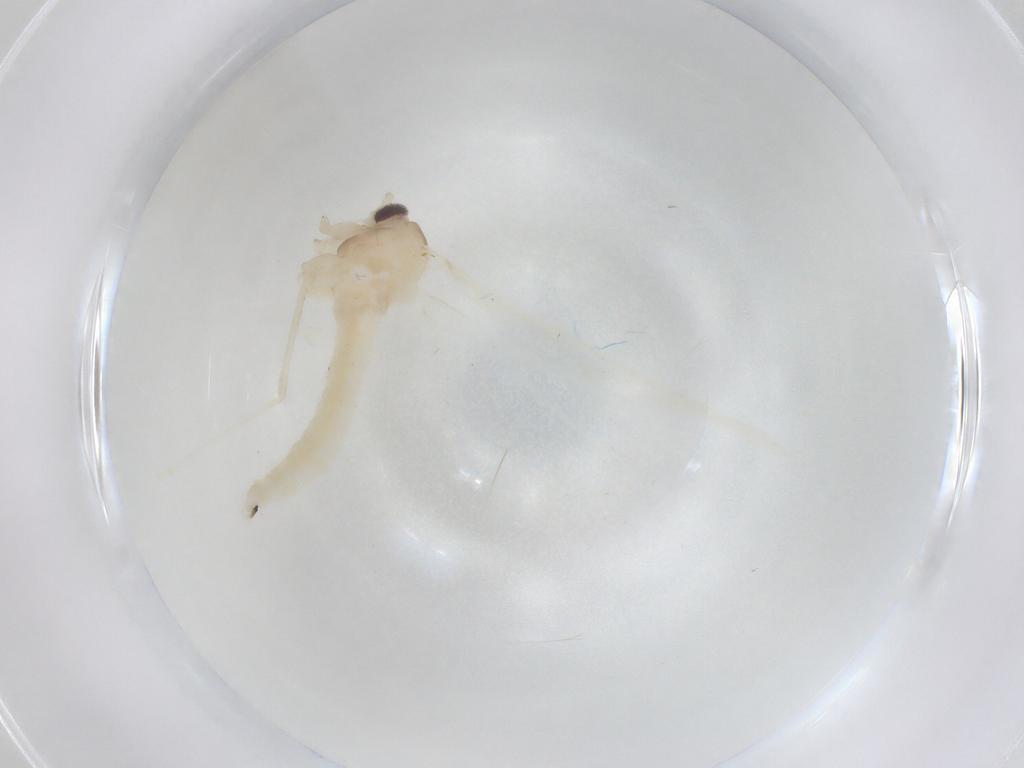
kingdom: Animalia
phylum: Arthropoda
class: Insecta
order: Diptera
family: Cecidomyiidae
